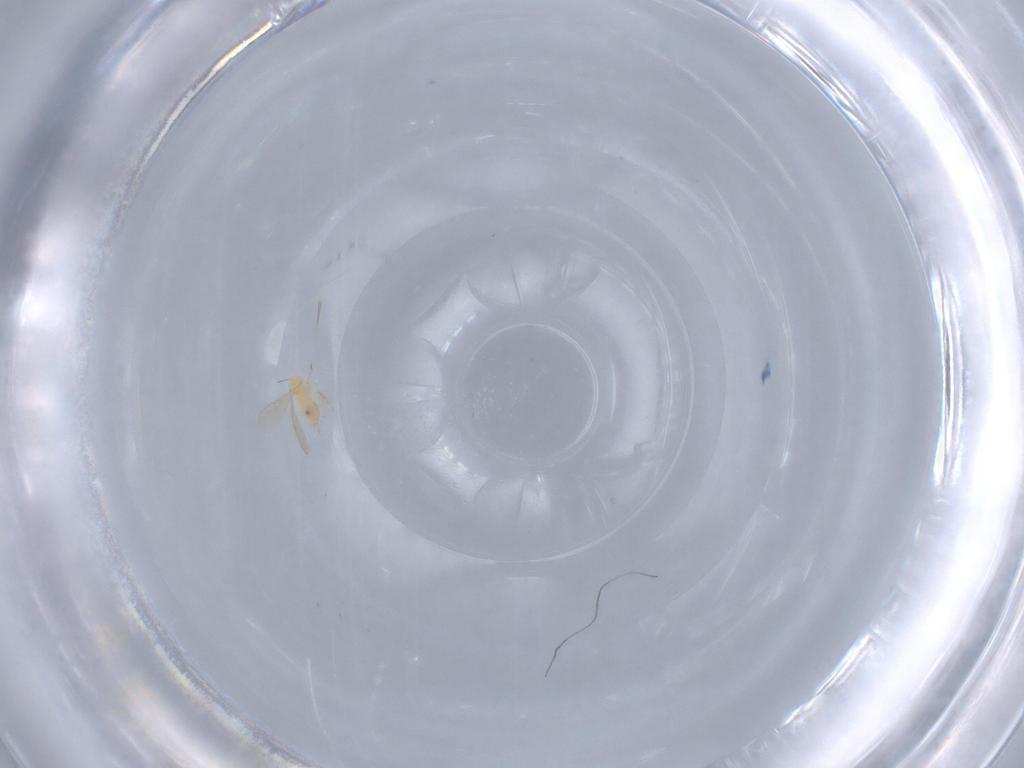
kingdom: Animalia
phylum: Arthropoda
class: Insecta
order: Hymenoptera
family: Aphelinidae
